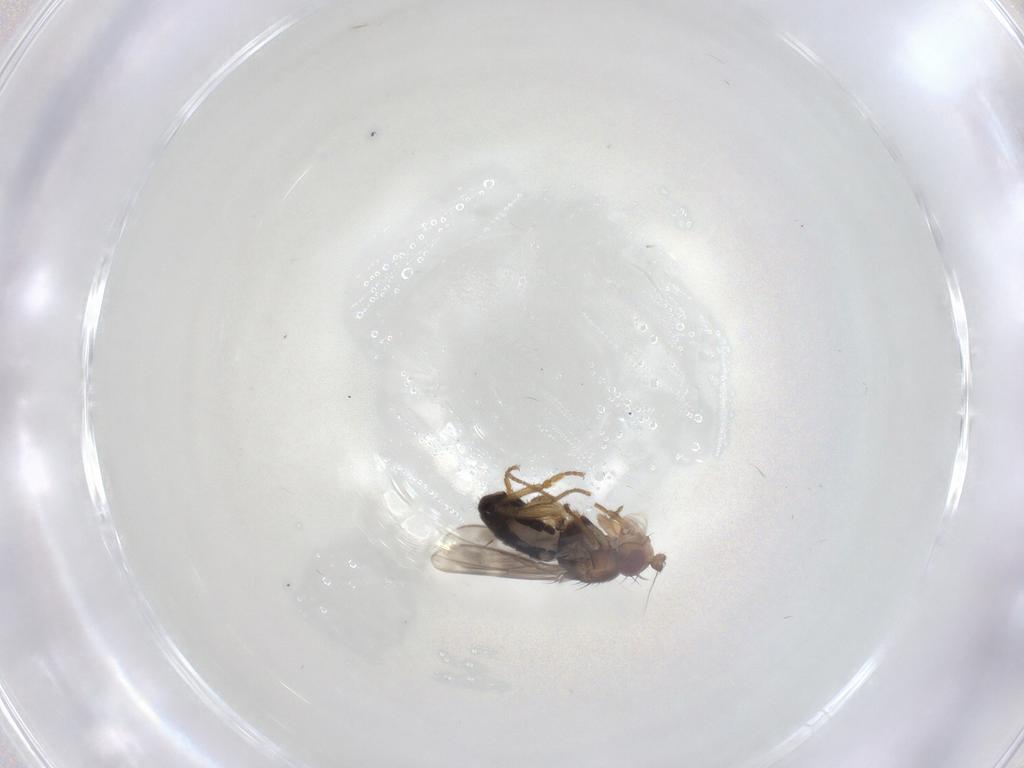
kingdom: Animalia
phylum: Arthropoda
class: Insecta
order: Diptera
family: Sphaeroceridae
